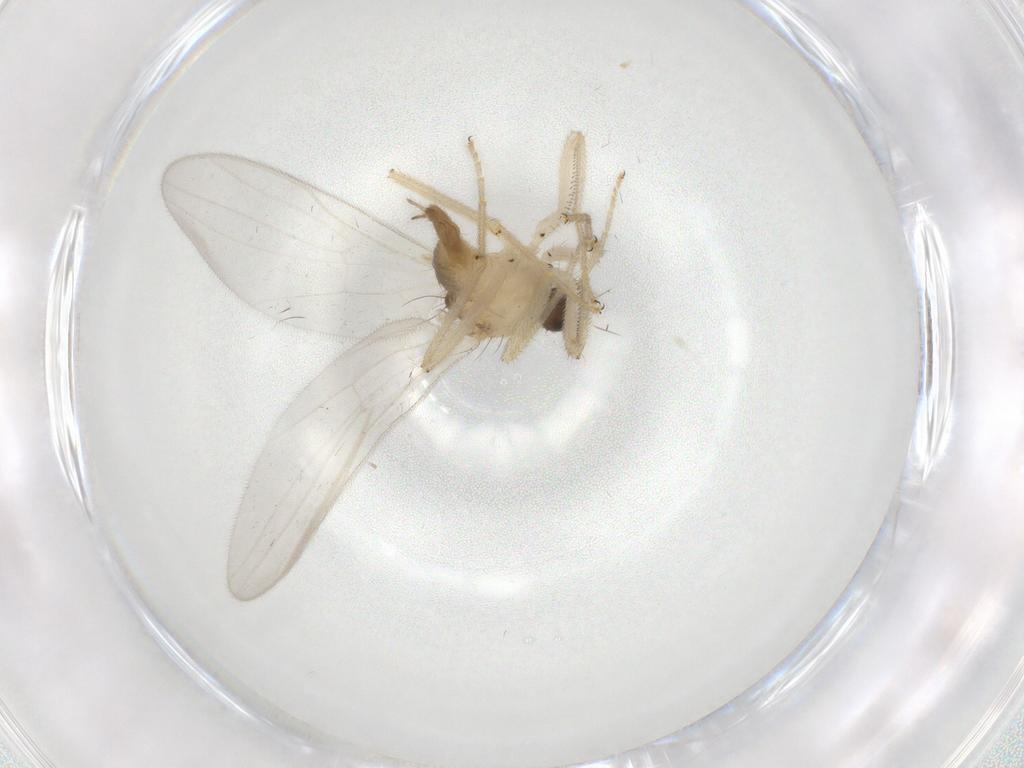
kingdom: Animalia
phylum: Arthropoda
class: Insecta
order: Diptera
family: Hybotidae
